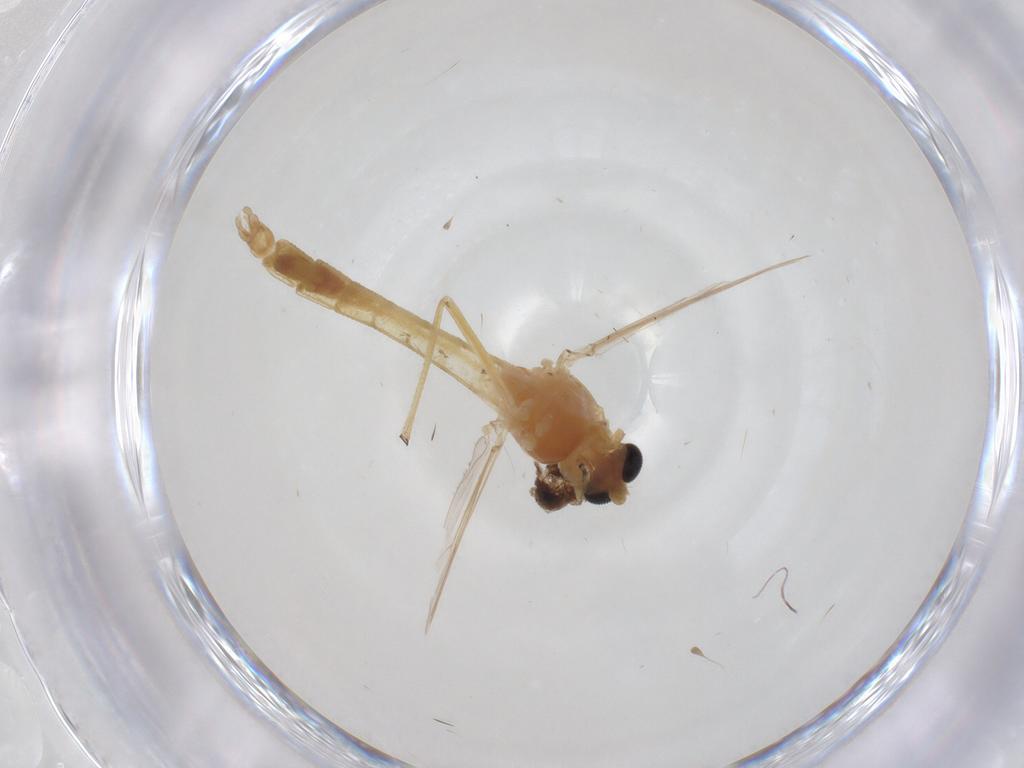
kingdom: Animalia
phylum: Arthropoda
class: Insecta
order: Diptera
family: Chironomidae
